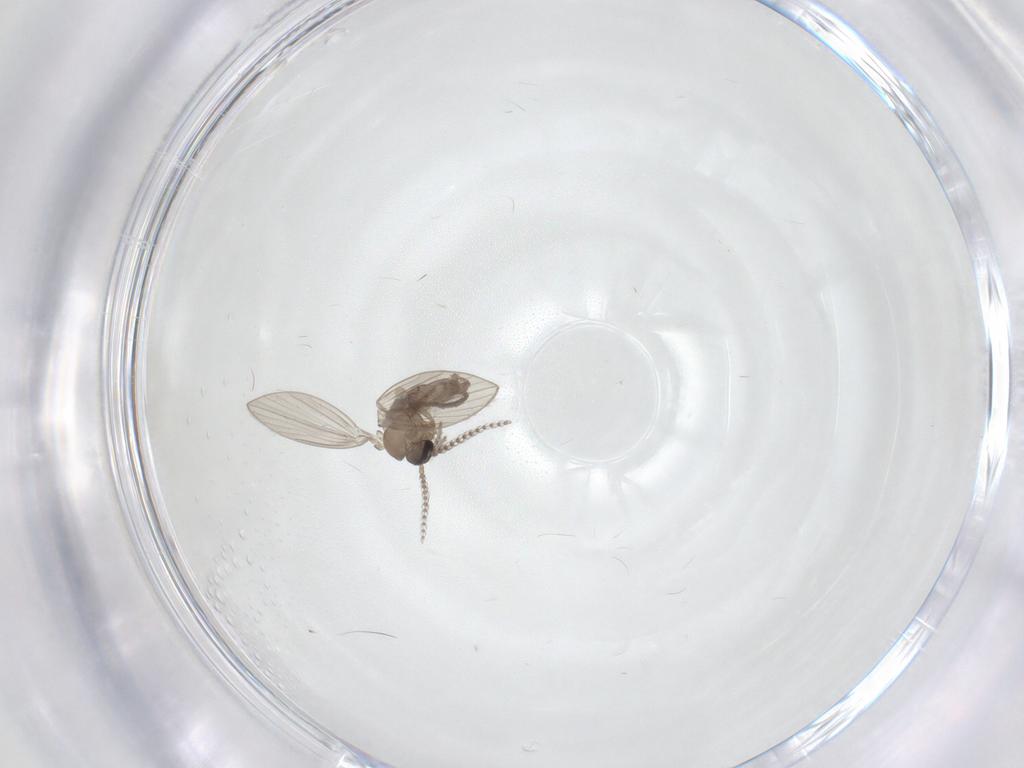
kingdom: Animalia
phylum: Arthropoda
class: Insecta
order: Diptera
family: Psychodidae
